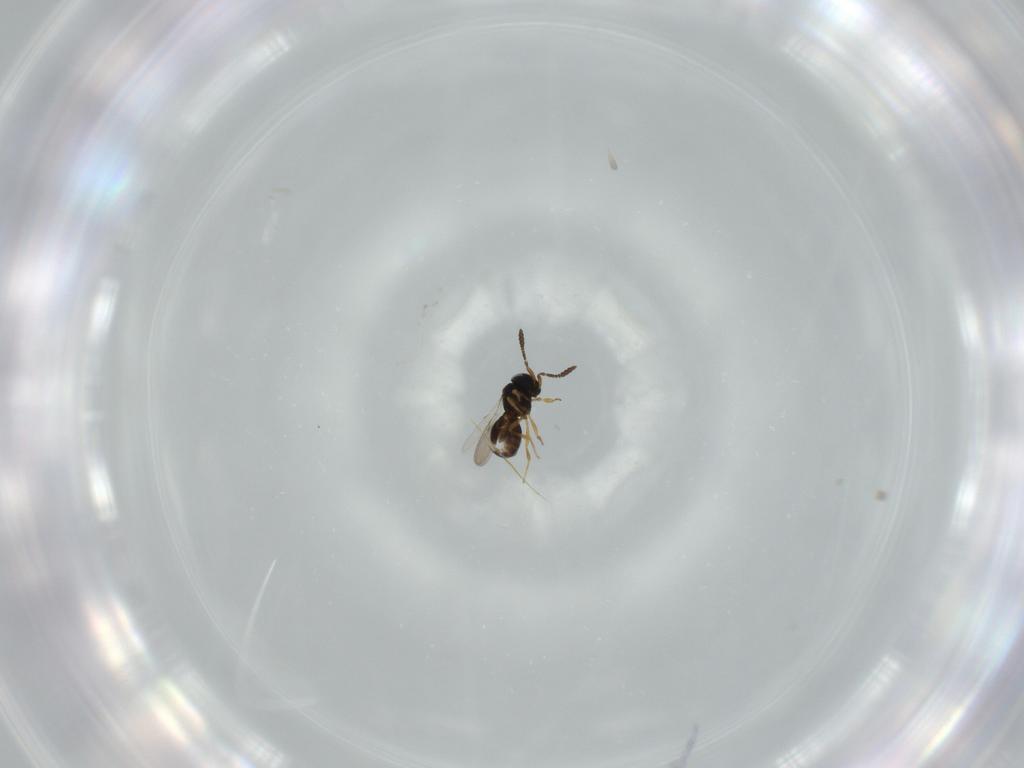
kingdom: Animalia
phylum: Arthropoda
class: Insecta
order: Hymenoptera
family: Scelionidae
